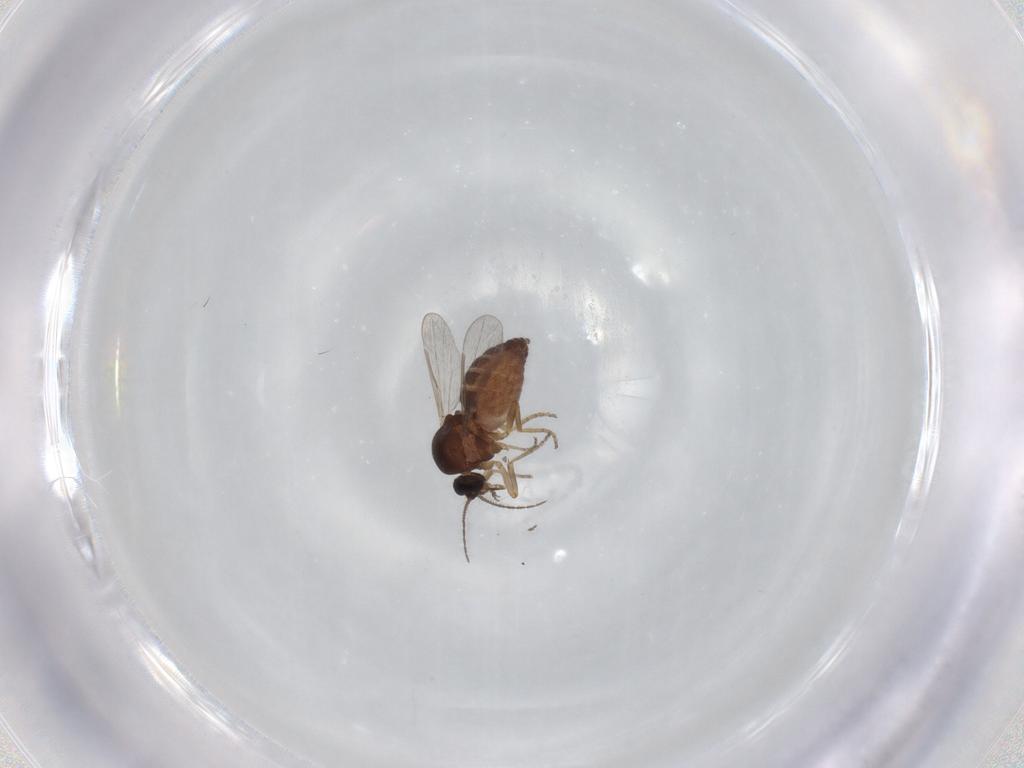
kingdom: Animalia
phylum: Arthropoda
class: Insecta
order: Diptera
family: Ceratopogonidae
